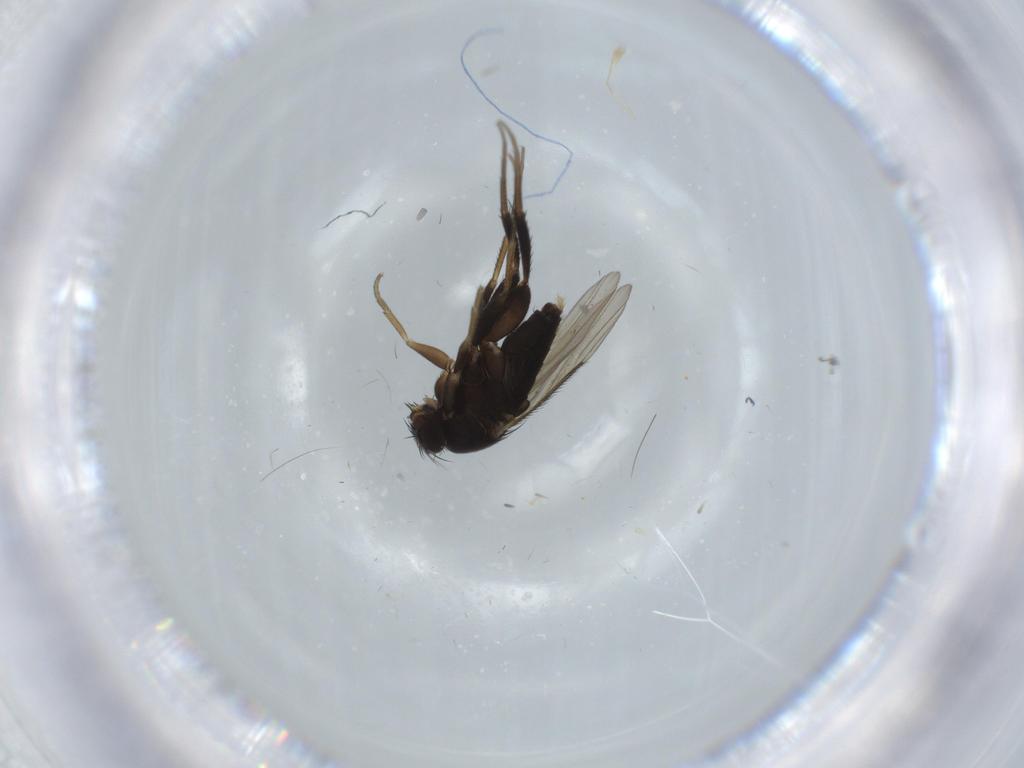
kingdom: Animalia
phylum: Arthropoda
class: Insecta
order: Diptera
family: Phoridae
